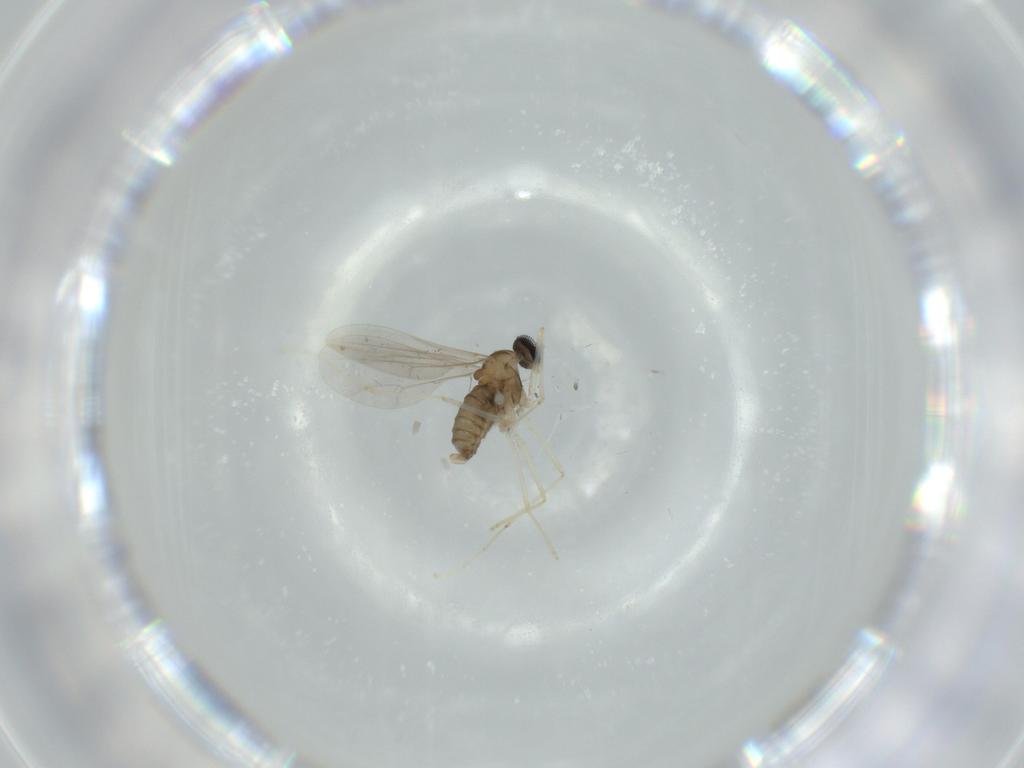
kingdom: Animalia
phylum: Arthropoda
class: Insecta
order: Diptera
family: Cecidomyiidae
